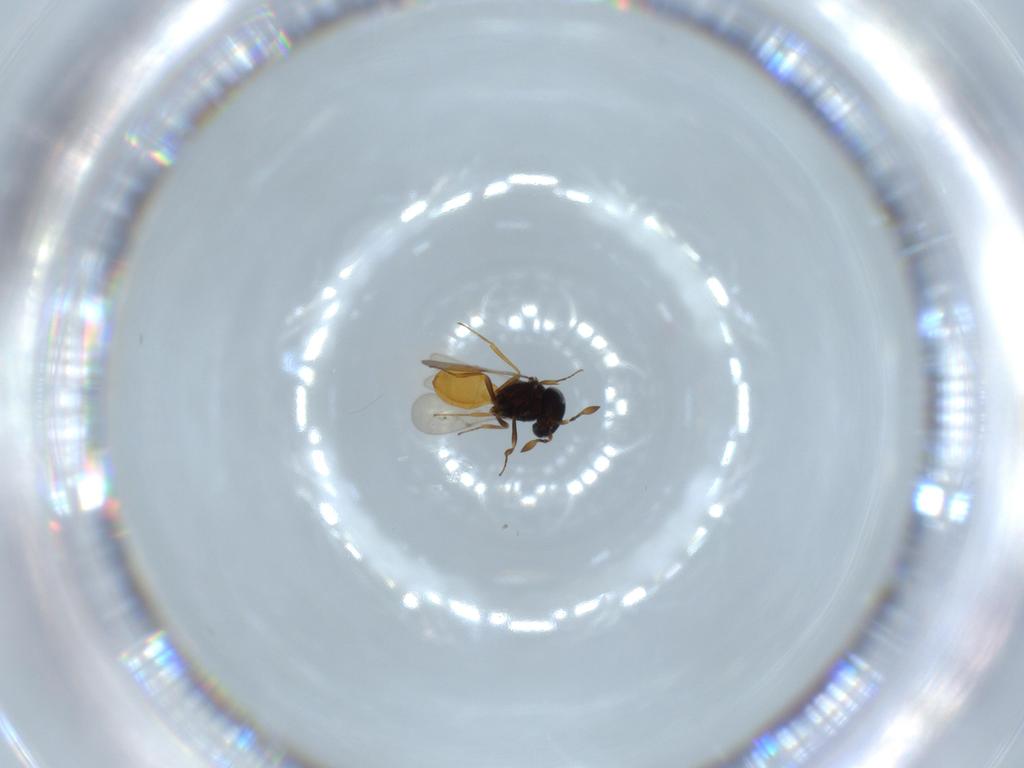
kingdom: Animalia
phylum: Arthropoda
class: Insecta
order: Hymenoptera
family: Scelionidae
